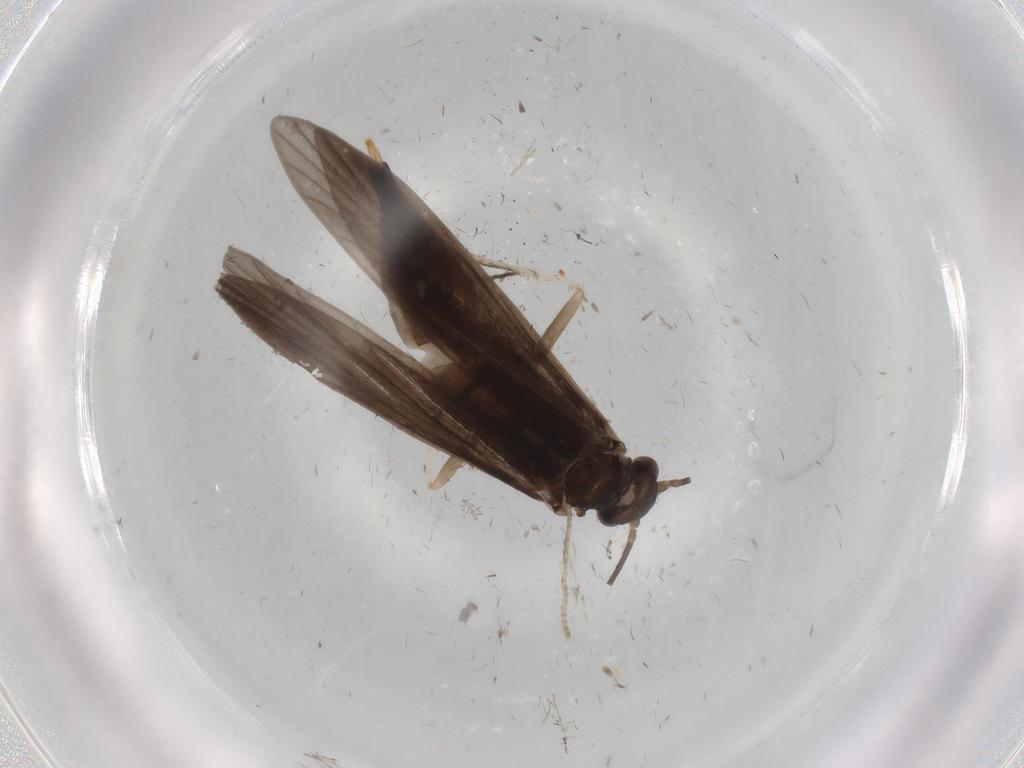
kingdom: Animalia
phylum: Arthropoda
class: Insecta
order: Trichoptera
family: Xiphocentronidae
